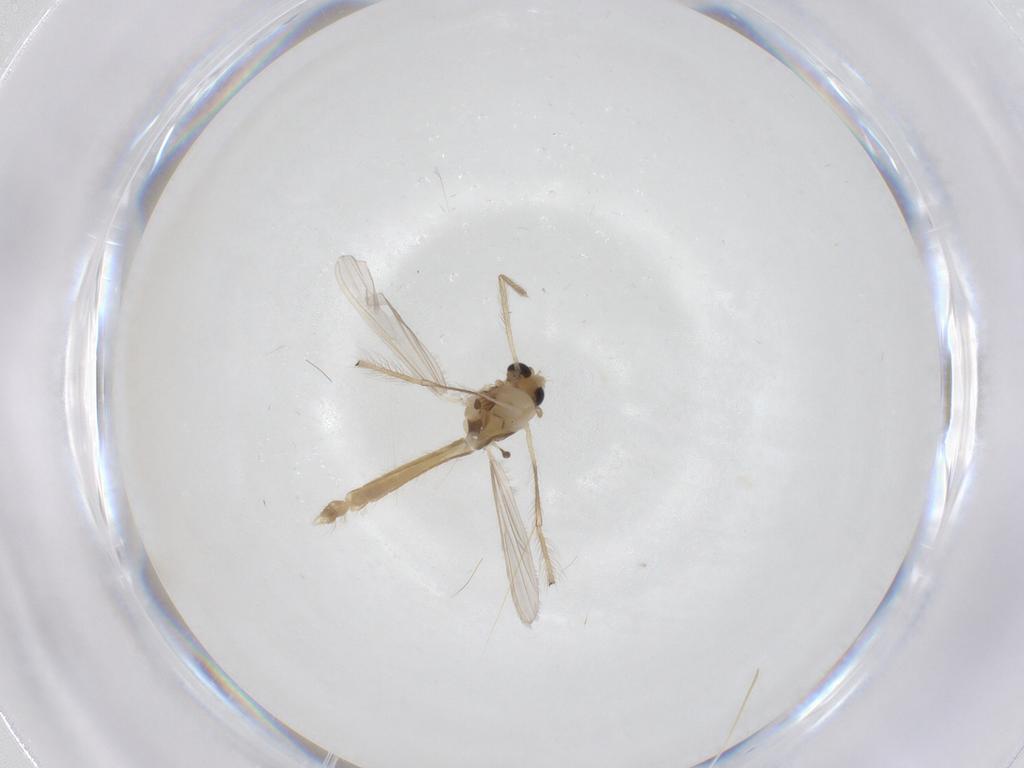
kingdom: Animalia
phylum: Arthropoda
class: Insecta
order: Diptera
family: Chironomidae
